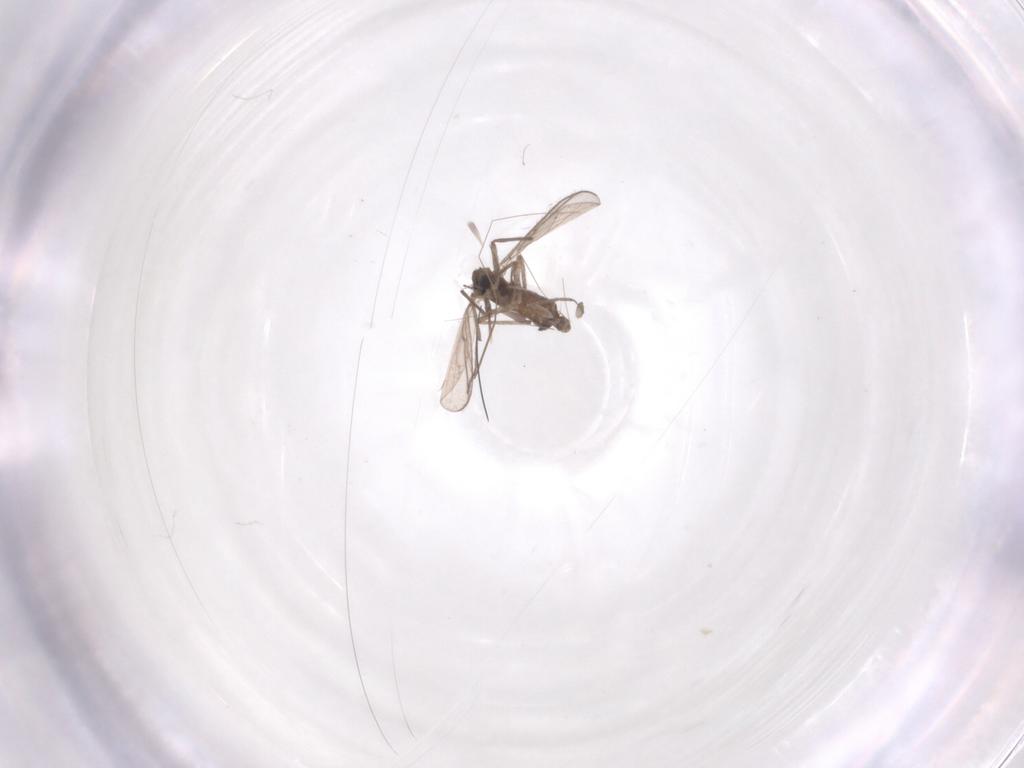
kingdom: Animalia
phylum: Arthropoda
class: Insecta
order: Diptera
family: Chironomidae
